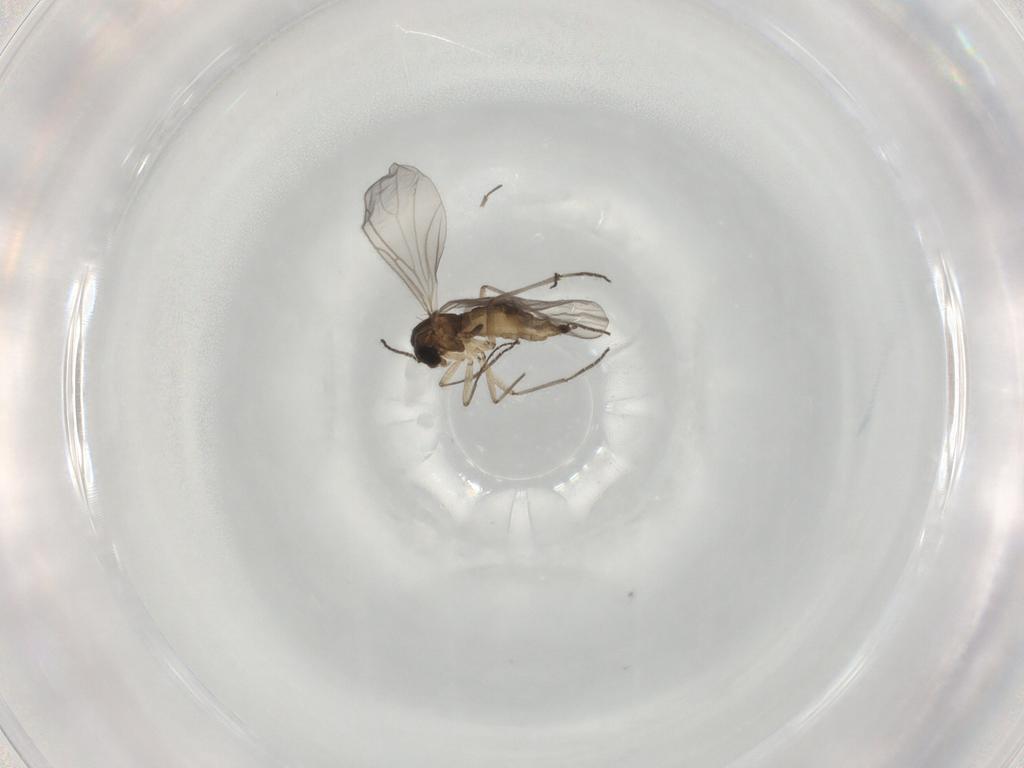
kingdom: Animalia
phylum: Arthropoda
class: Insecta
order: Diptera
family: Sciaridae
